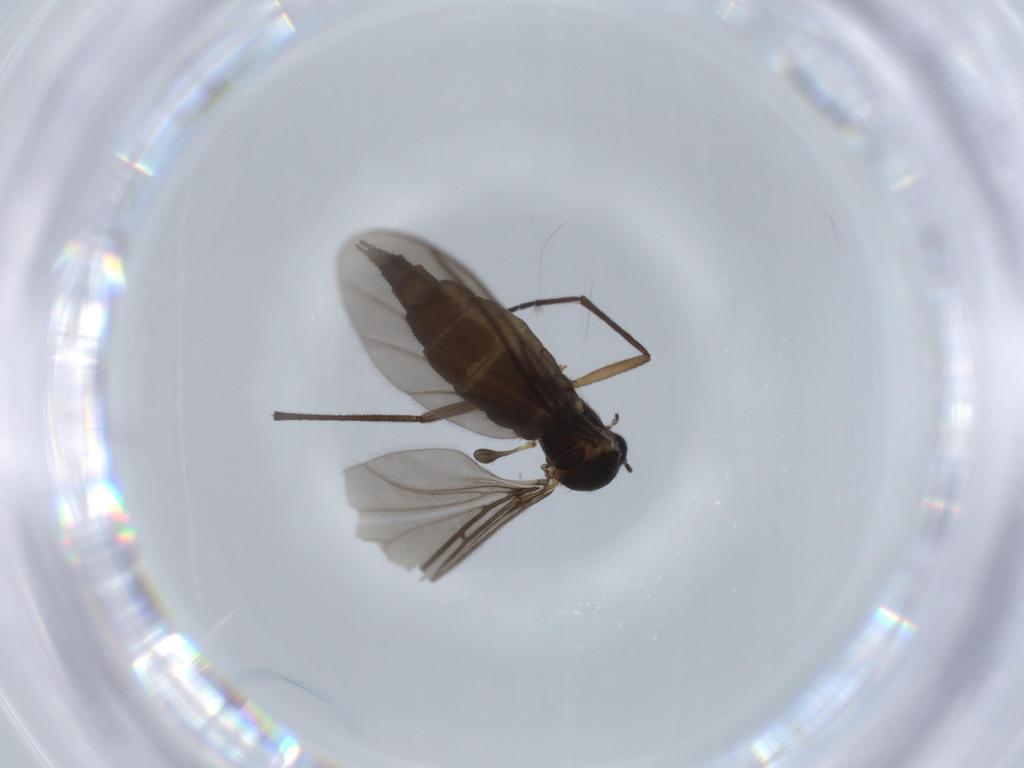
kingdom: Animalia
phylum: Arthropoda
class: Insecta
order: Diptera
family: Sciaridae
